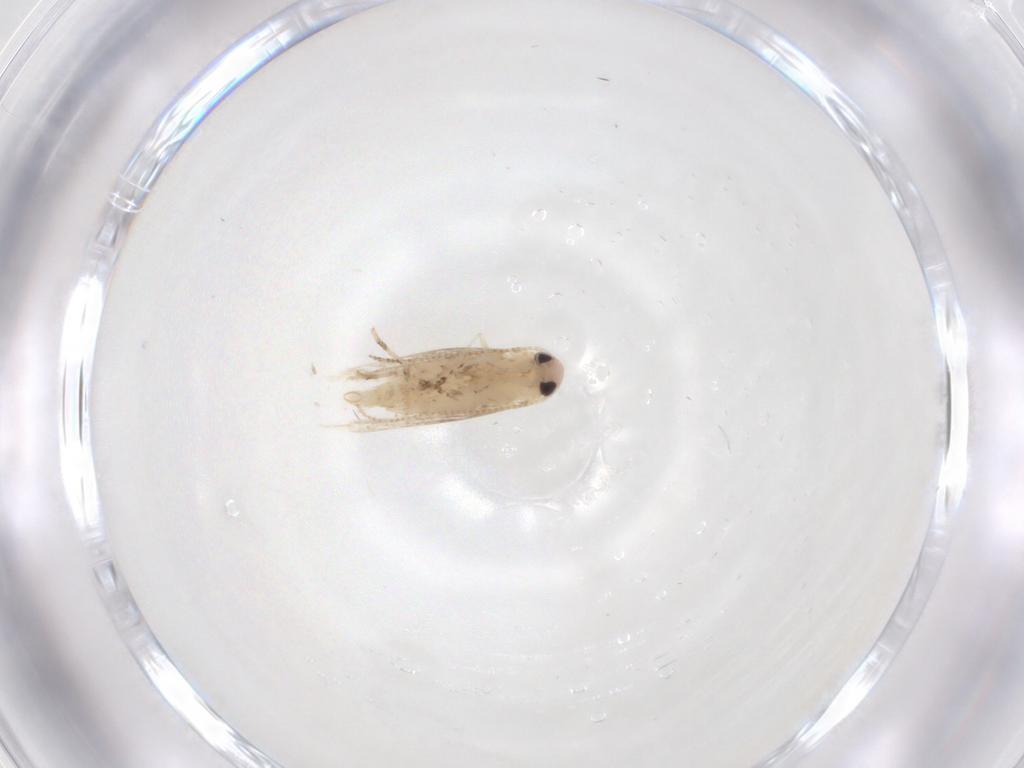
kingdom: Animalia
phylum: Arthropoda
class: Insecta
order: Lepidoptera
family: Gracillariidae
